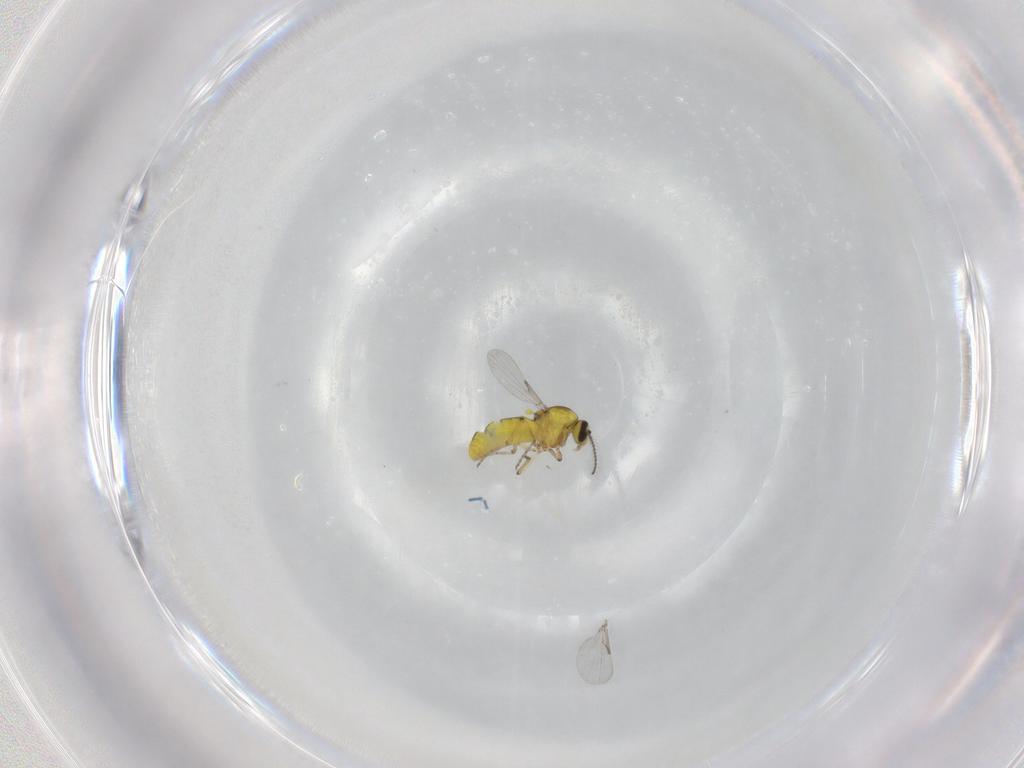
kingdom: Animalia
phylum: Arthropoda
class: Insecta
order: Diptera
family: Ceratopogonidae
